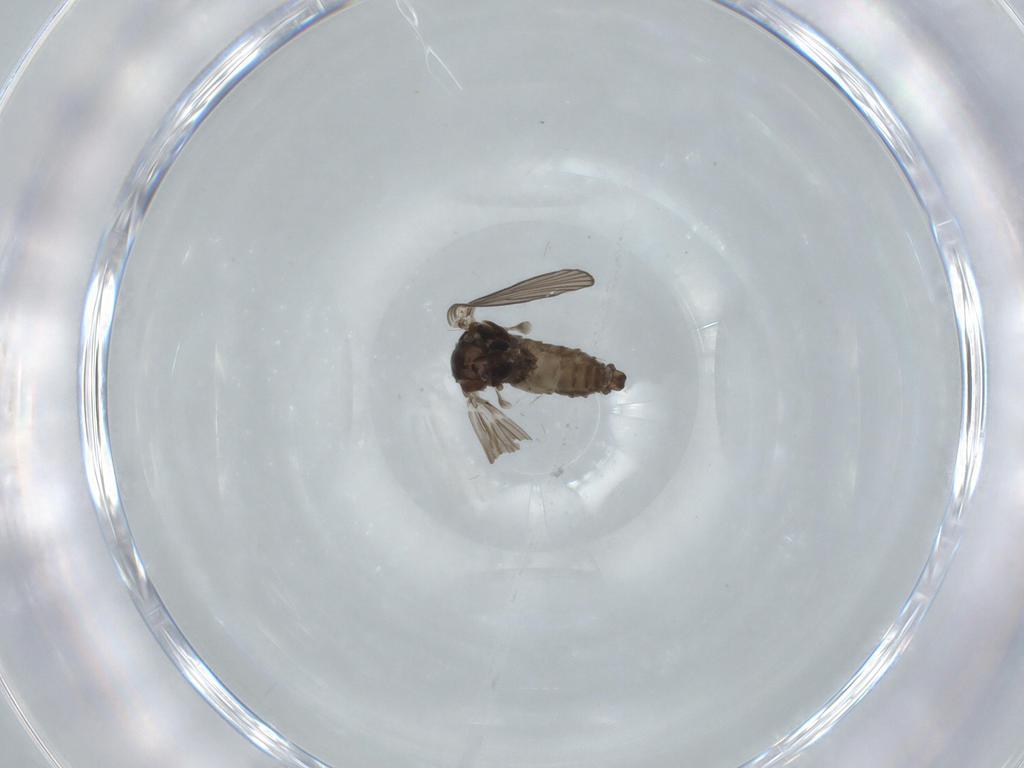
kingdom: Animalia
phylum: Arthropoda
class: Insecta
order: Diptera
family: Psychodidae
